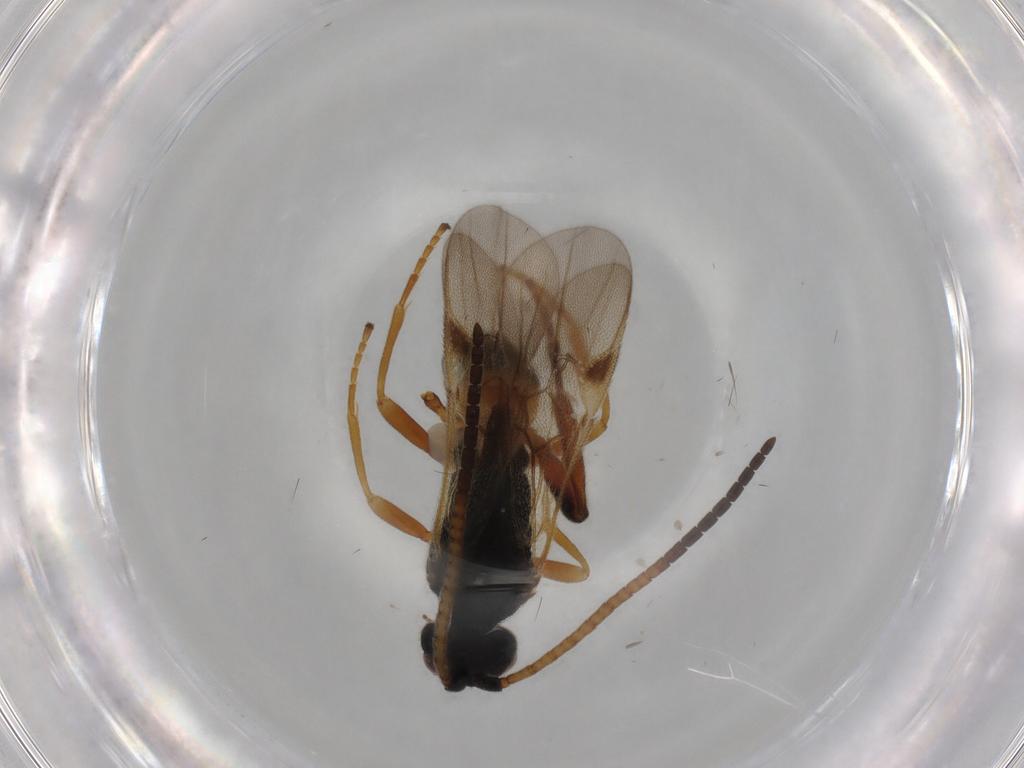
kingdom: Animalia
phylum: Arthropoda
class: Insecta
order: Hymenoptera
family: Braconidae
